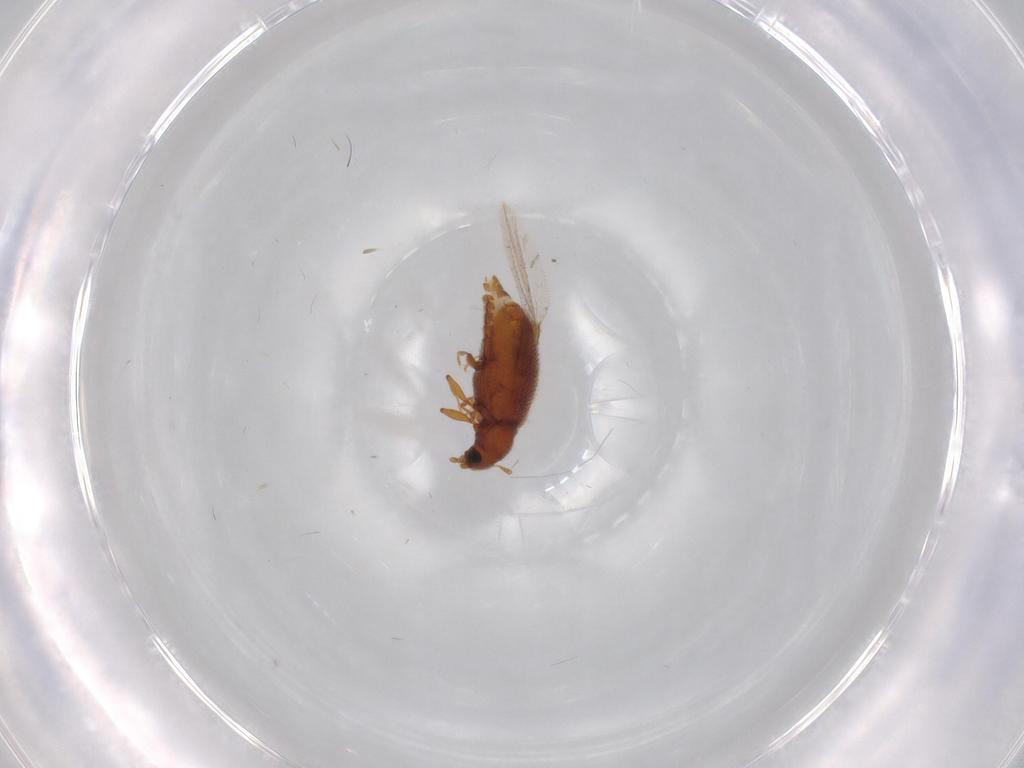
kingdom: Animalia
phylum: Arthropoda
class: Insecta
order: Coleoptera
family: Latridiidae
